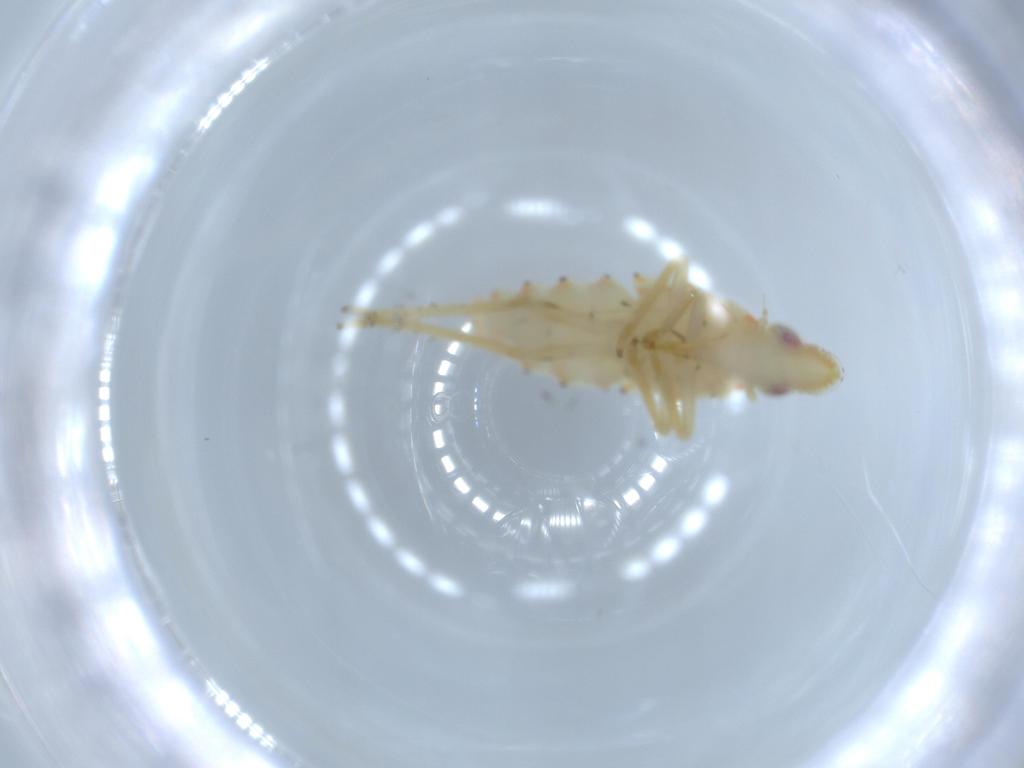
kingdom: Animalia
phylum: Arthropoda
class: Insecta
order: Hemiptera
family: Tropiduchidae
